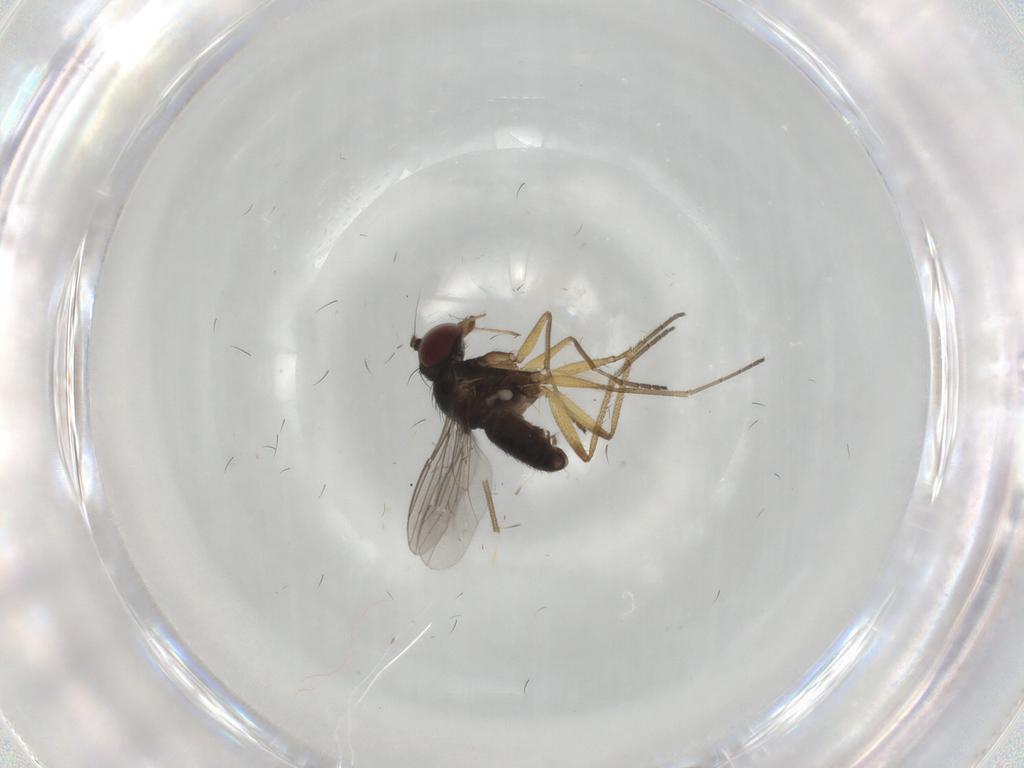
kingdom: Animalia
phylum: Arthropoda
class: Insecta
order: Diptera
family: Dolichopodidae
